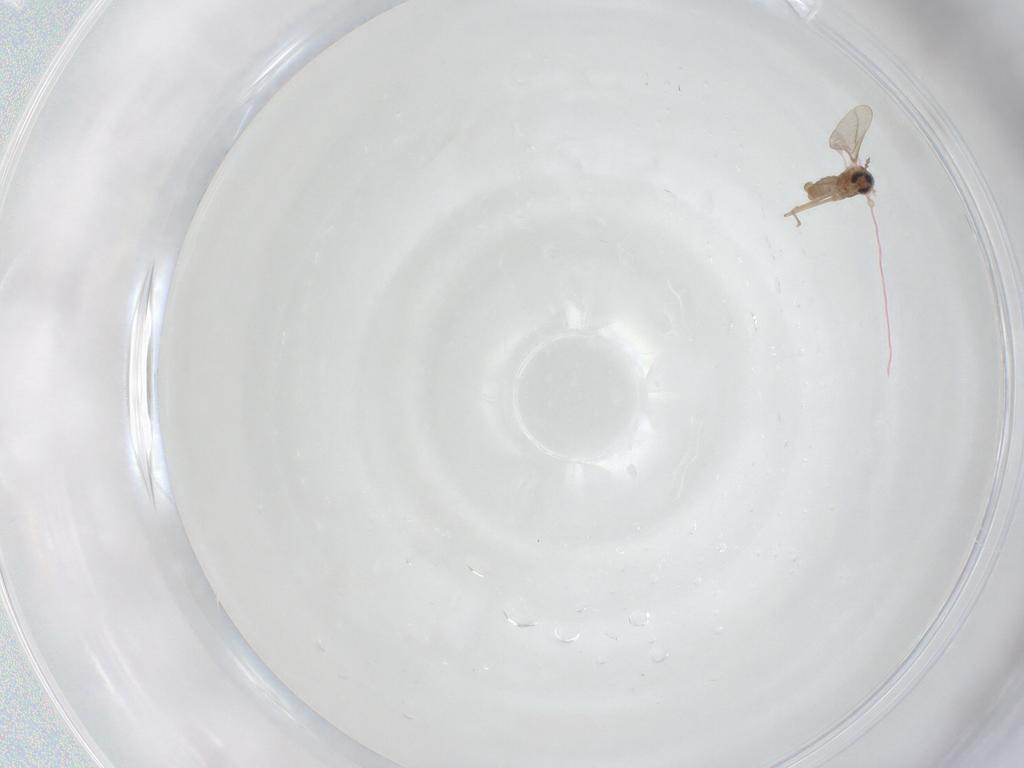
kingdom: Animalia
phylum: Arthropoda
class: Insecta
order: Diptera
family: Cecidomyiidae
